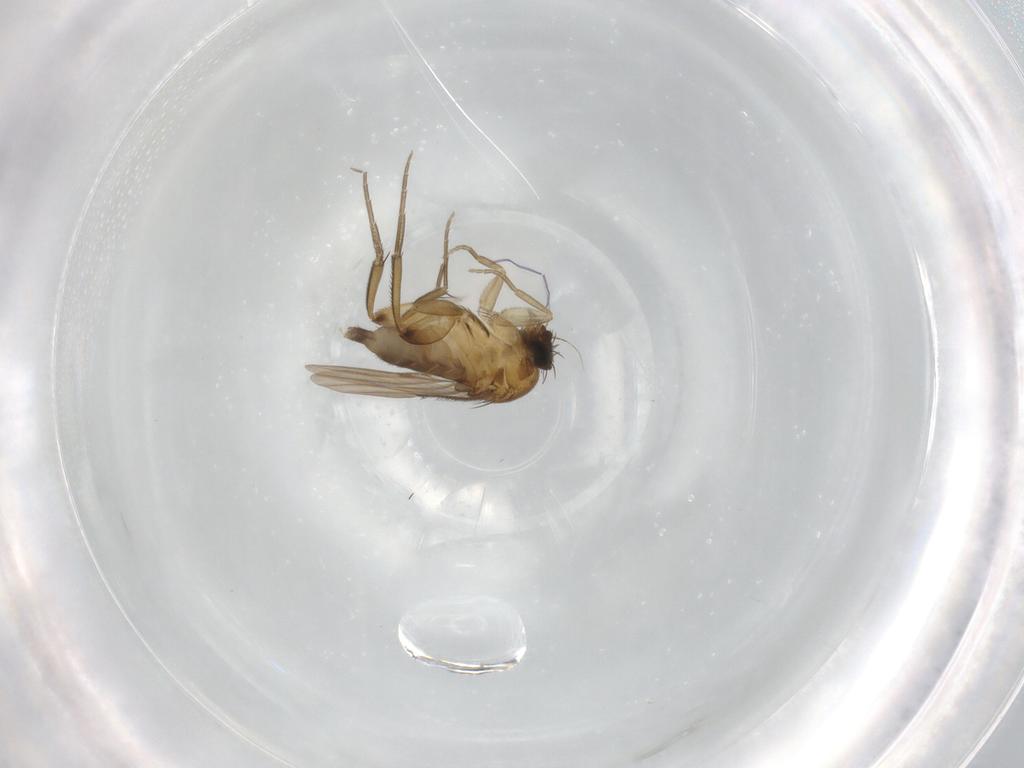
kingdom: Animalia
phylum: Arthropoda
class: Insecta
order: Diptera
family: Phoridae
